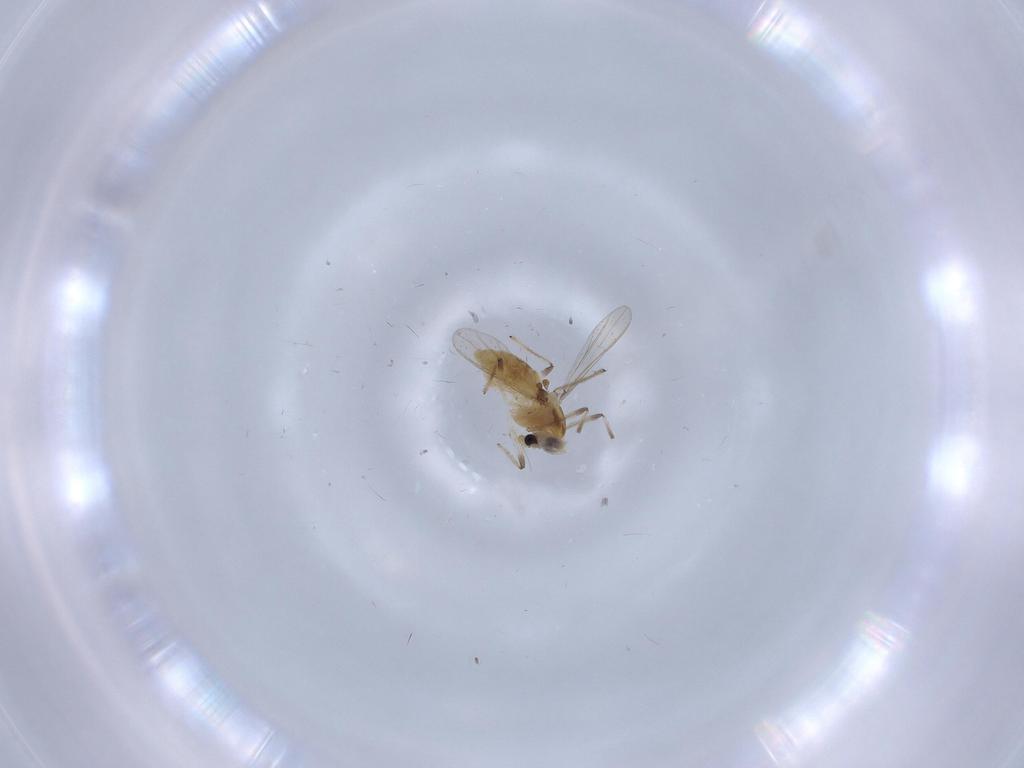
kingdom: Animalia
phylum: Arthropoda
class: Insecta
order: Diptera
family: Chironomidae
